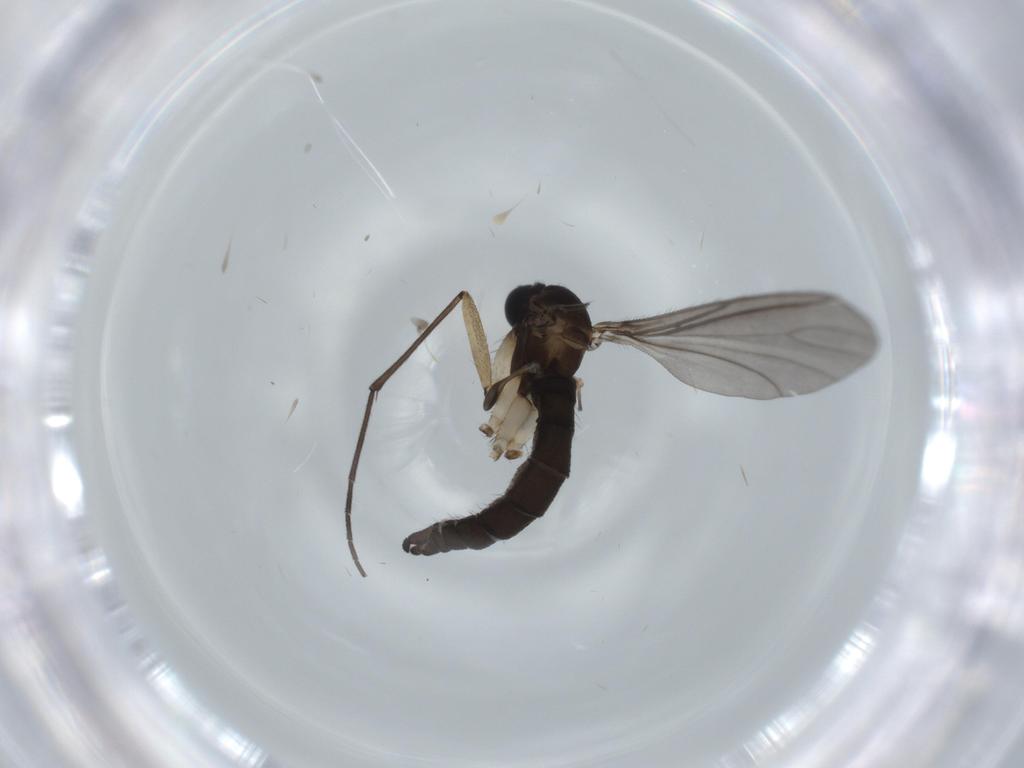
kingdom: Animalia
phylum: Arthropoda
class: Insecta
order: Diptera
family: Sciaridae
